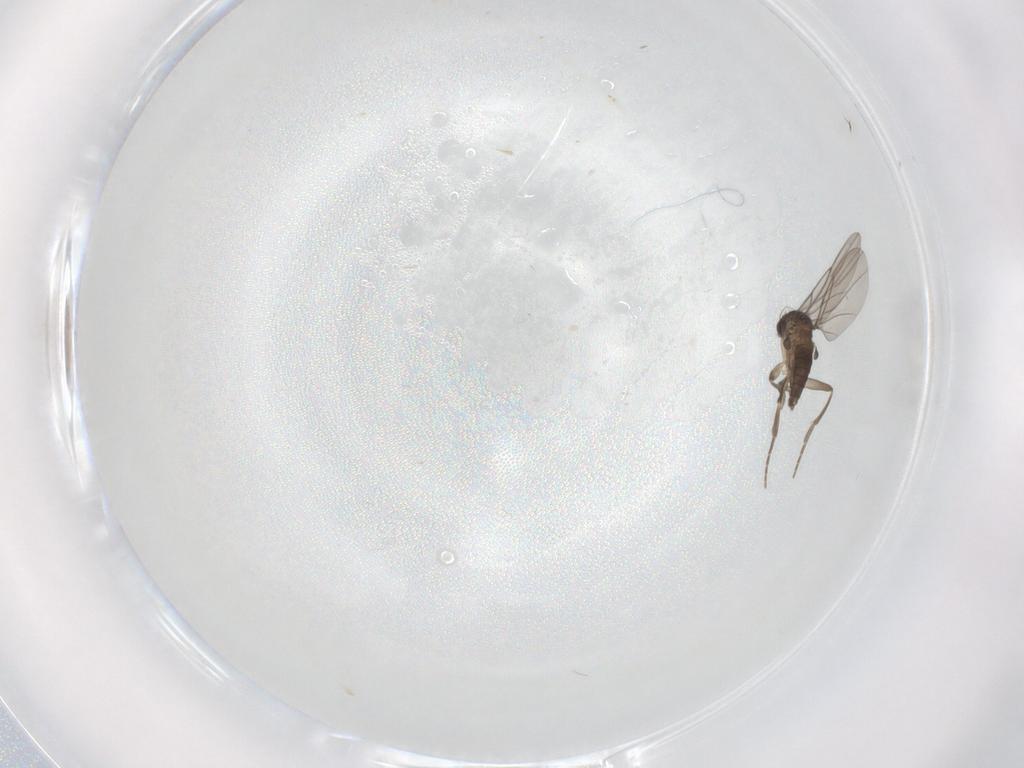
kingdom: Animalia
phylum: Arthropoda
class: Insecta
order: Diptera
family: Cecidomyiidae
